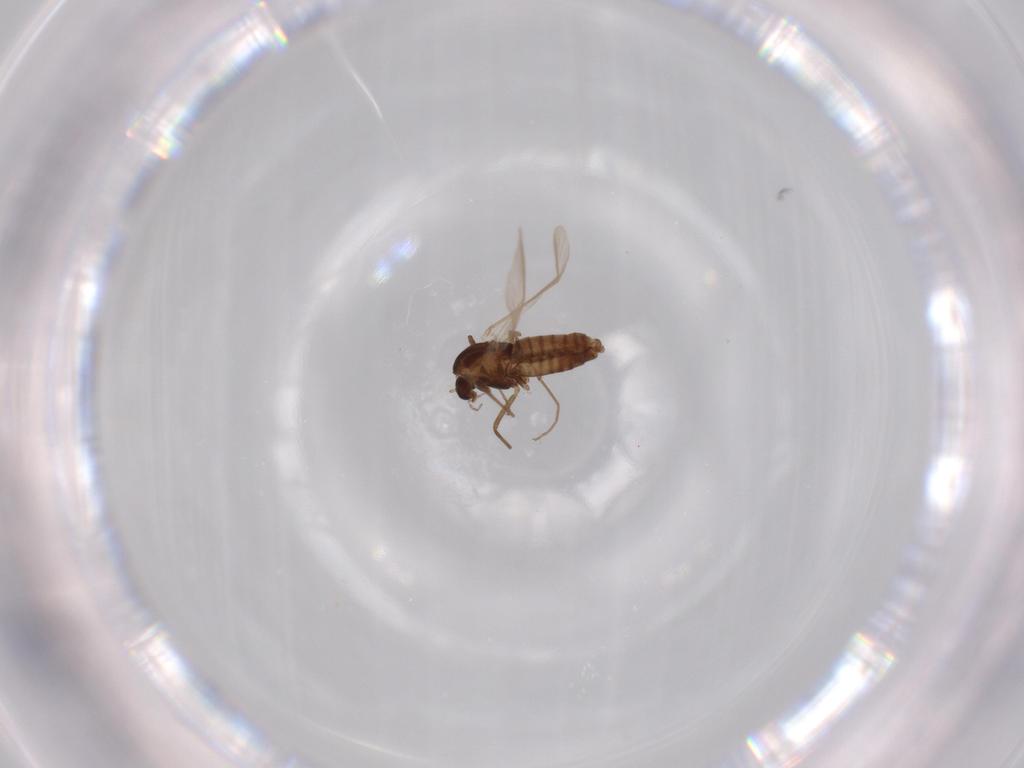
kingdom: Animalia
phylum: Arthropoda
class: Insecta
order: Diptera
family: Chironomidae
